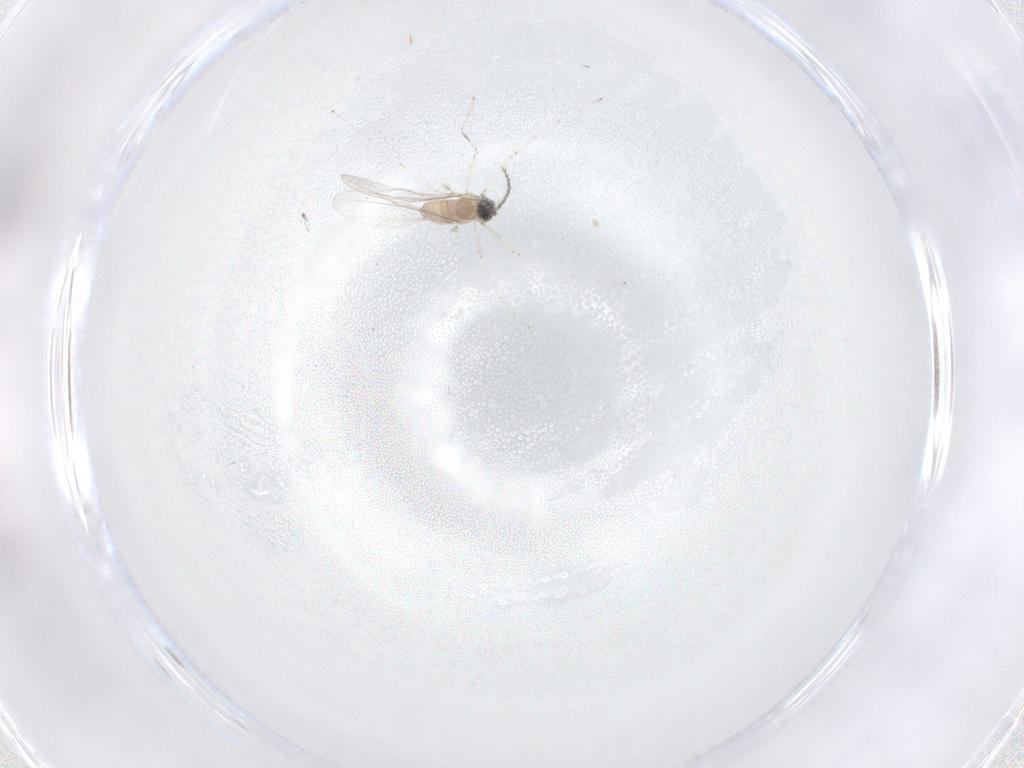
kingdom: Animalia
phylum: Arthropoda
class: Insecta
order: Diptera
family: Cecidomyiidae
